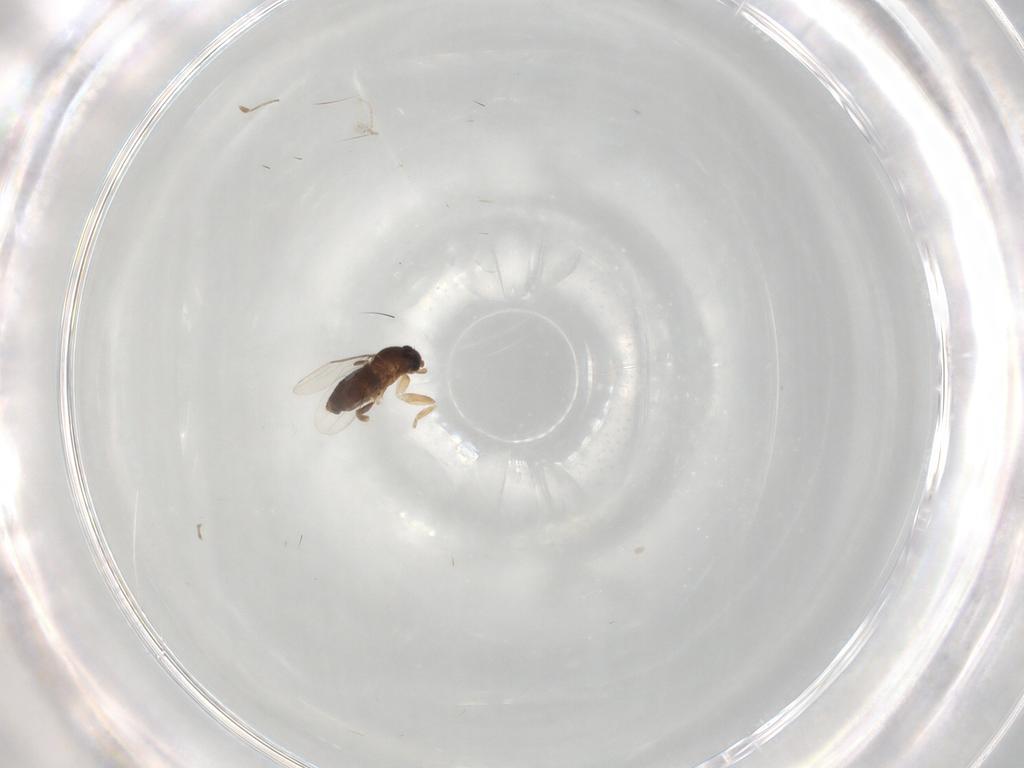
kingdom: Animalia
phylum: Arthropoda
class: Insecta
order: Diptera
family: Cecidomyiidae
